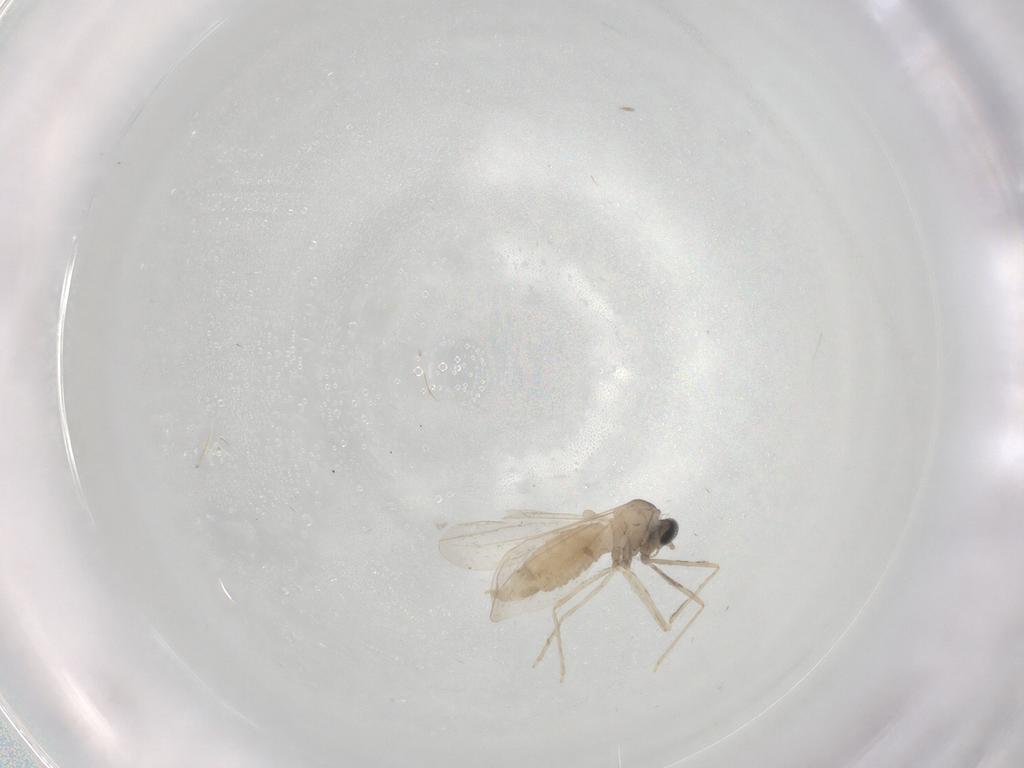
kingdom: Animalia
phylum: Arthropoda
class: Insecta
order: Diptera
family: Cecidomyiidae
